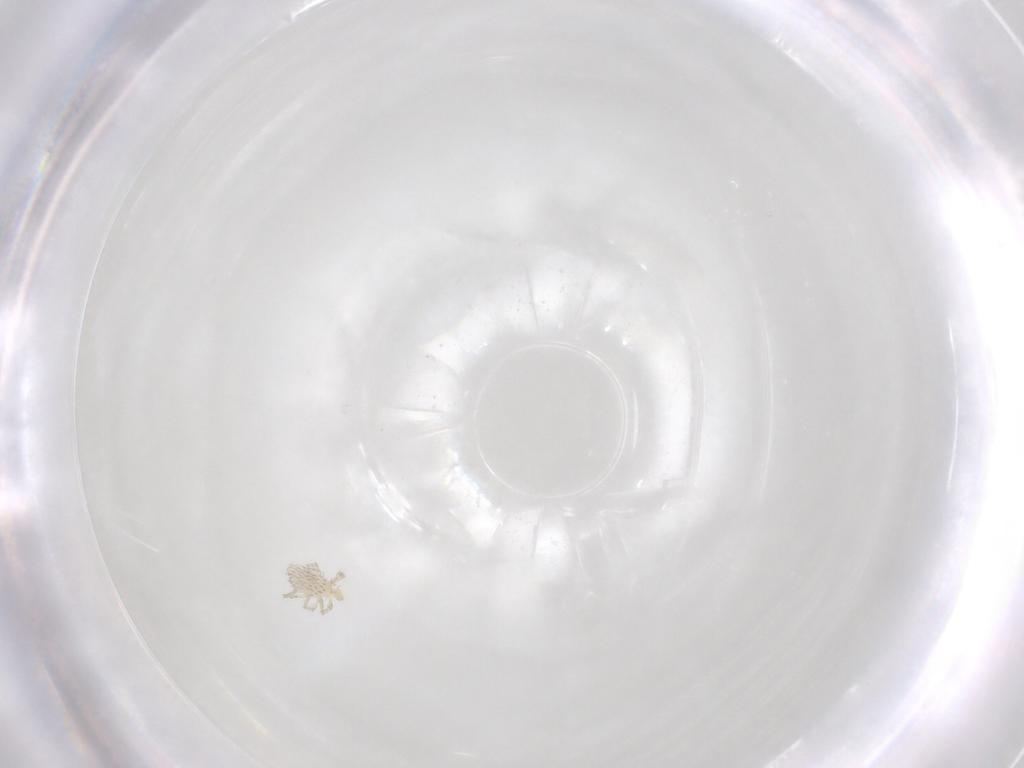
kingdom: Animalia
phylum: Arthropoda
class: Arachnida
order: Trombidiformes
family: Erythraeidae
